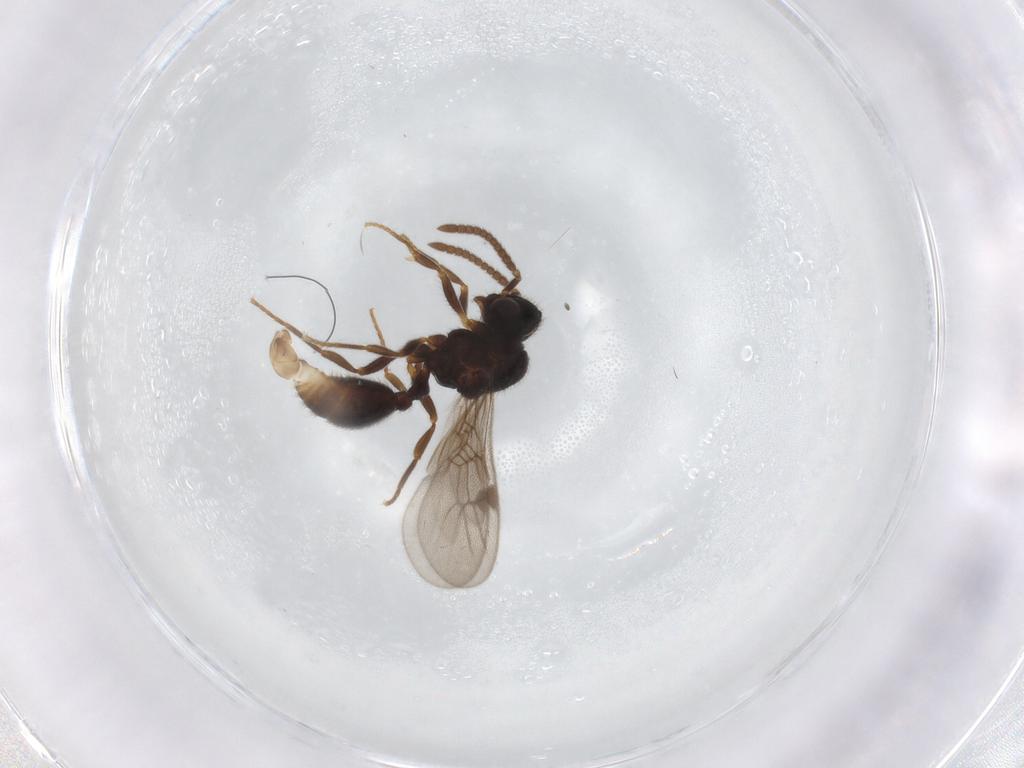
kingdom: Animalia
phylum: Arthropoda
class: Insecta
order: Hymenoptera
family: Formicidae
